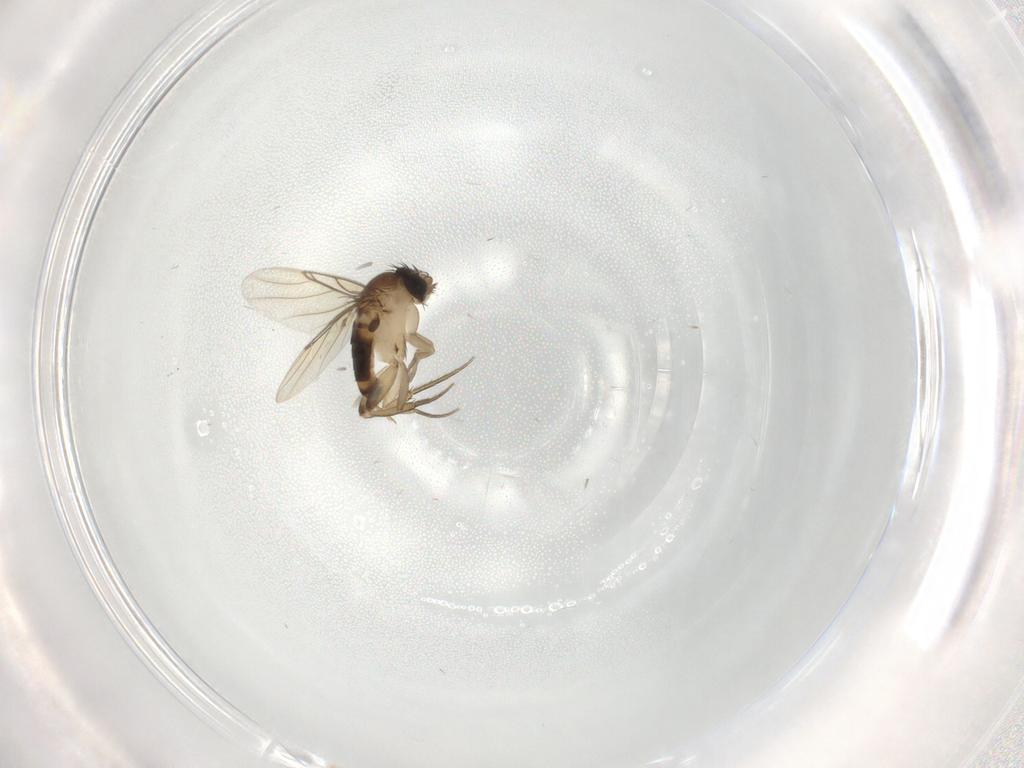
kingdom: Animalia
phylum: Arthropoda
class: Insecta
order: Diptera
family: Phoridae
